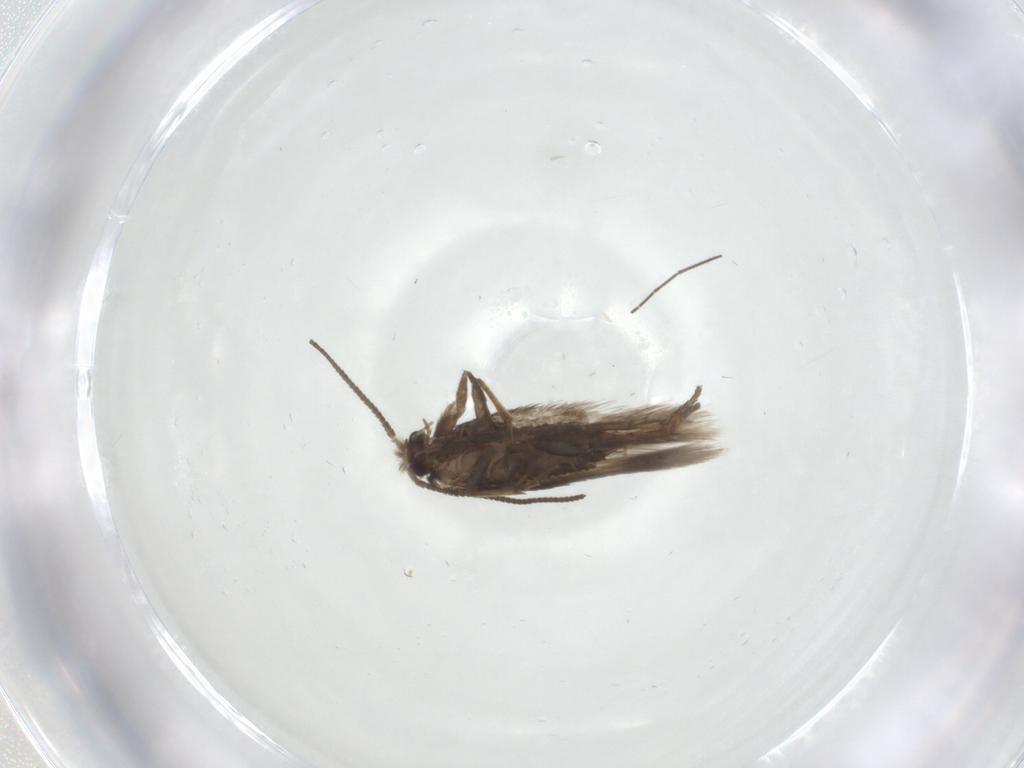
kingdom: Animalia
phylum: Arthropoda
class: Insecta
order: Lepidoptera
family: Nepticulidae
